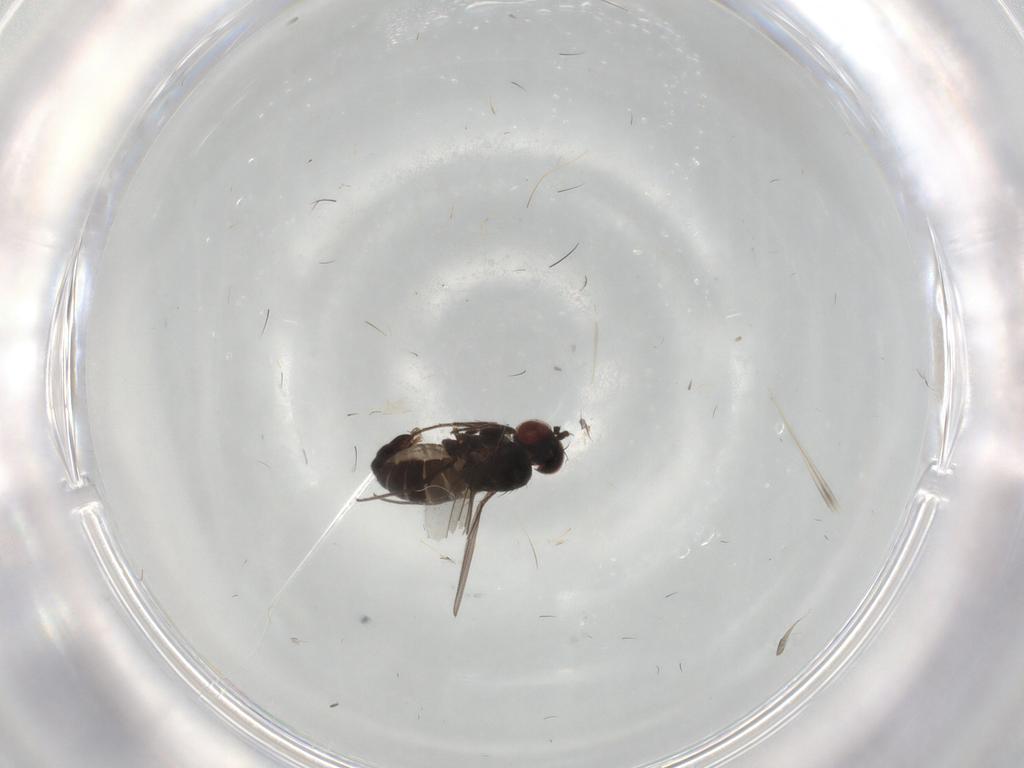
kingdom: Animalia
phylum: Arthropoda
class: Insecta
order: Diptera
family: Dolichopodidae
